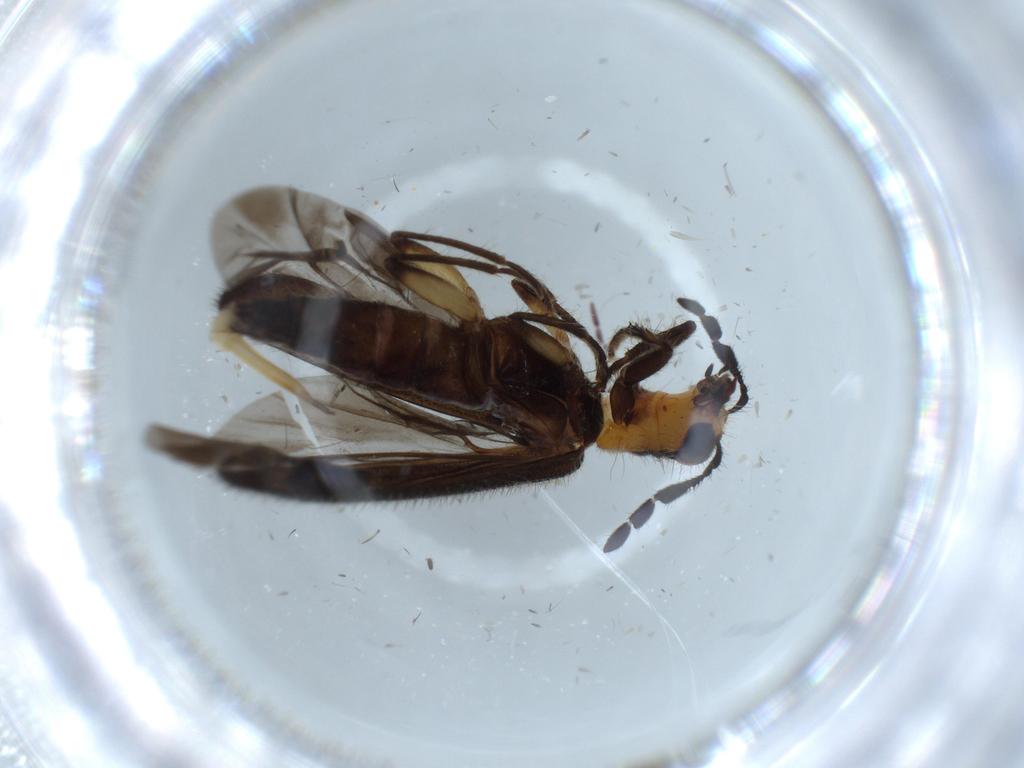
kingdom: Animalia
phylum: Arthropoda
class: Insecta
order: Coleoptera
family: Cleridae
